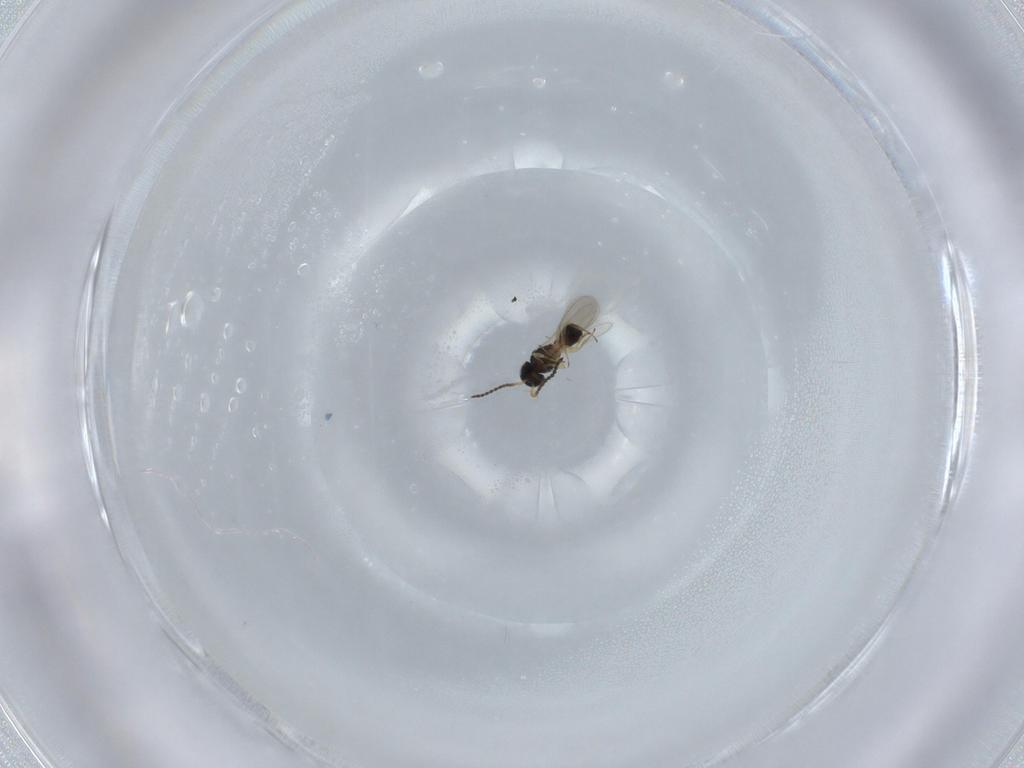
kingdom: Animalia
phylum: Arthropoda
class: Insecta
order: Hymenoptera
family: Scelionidae
